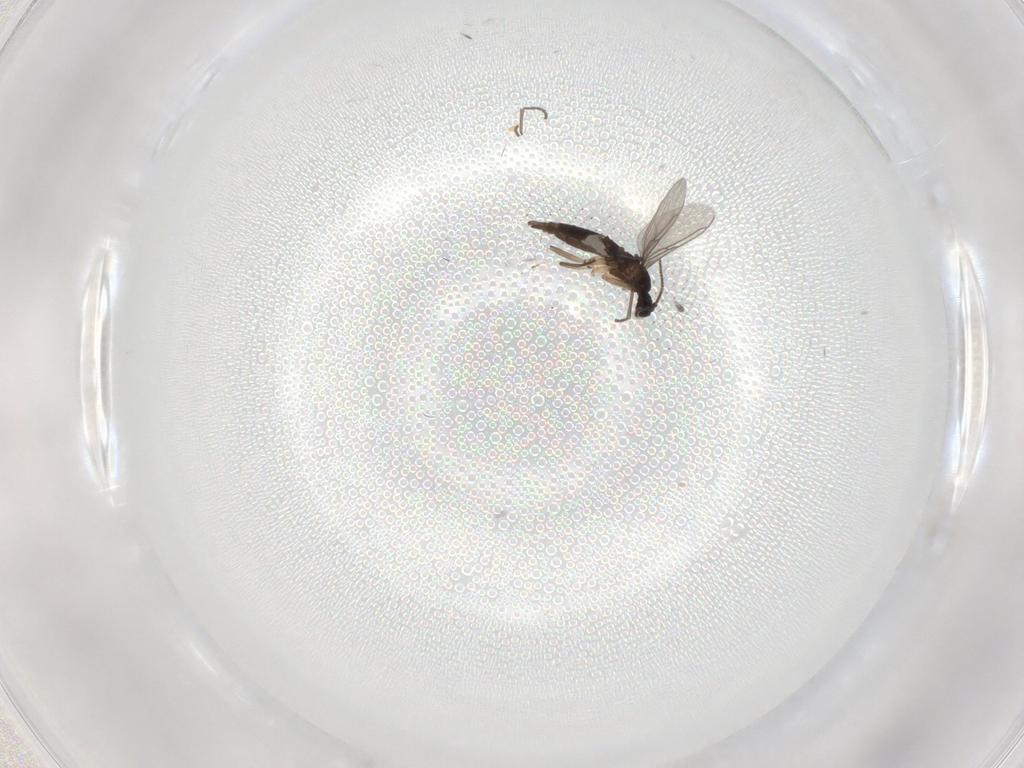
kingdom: Animalia
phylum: Arthropoda
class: Insecta
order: Diptera
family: Sciaridae
